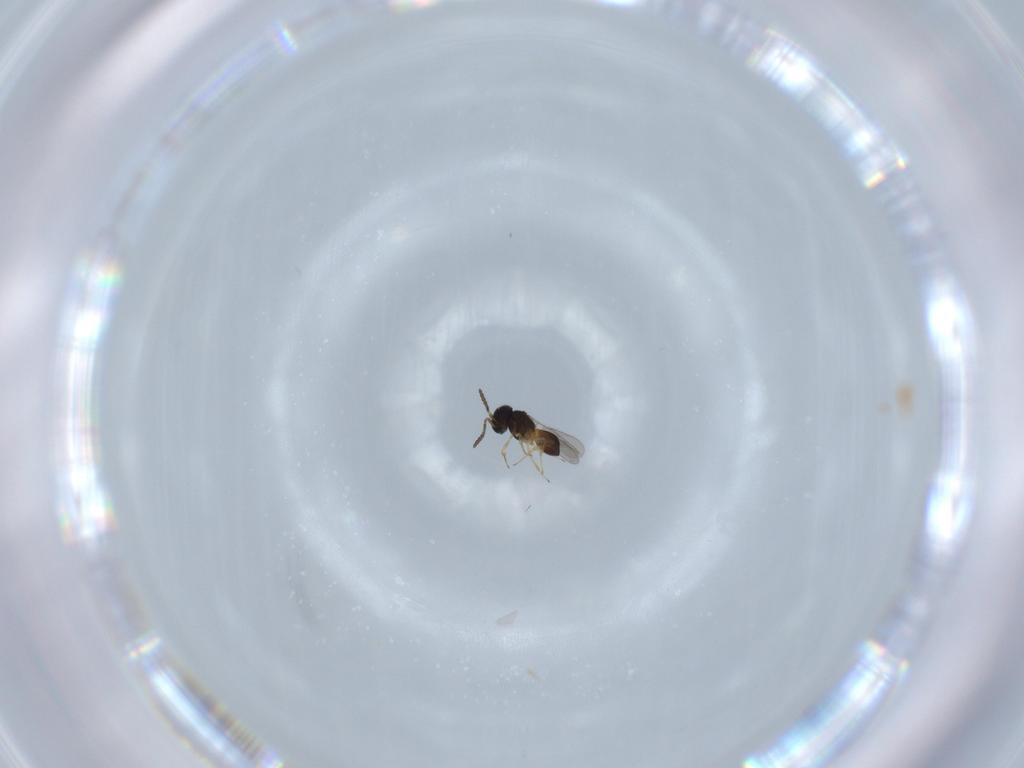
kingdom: Animalia
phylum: Arthropoda
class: Insecta
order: Hymenoptera
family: Scelionidae
